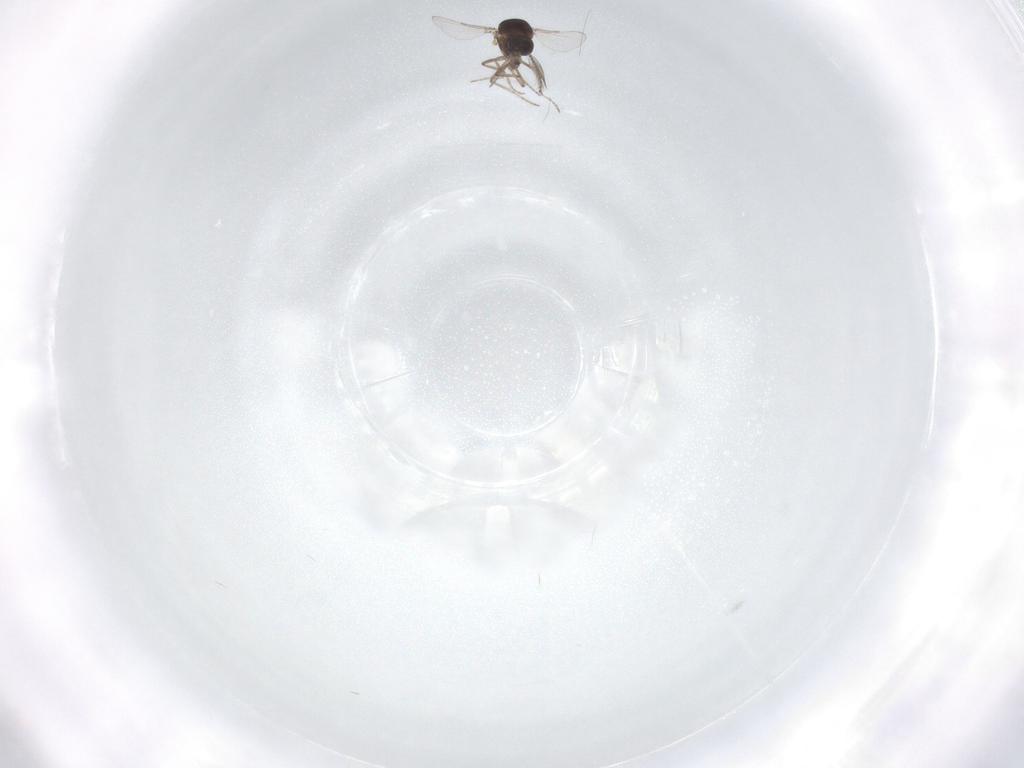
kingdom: Animalia
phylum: Arthropoda
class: Insecta
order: Diptera
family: Ceratopogonidae
